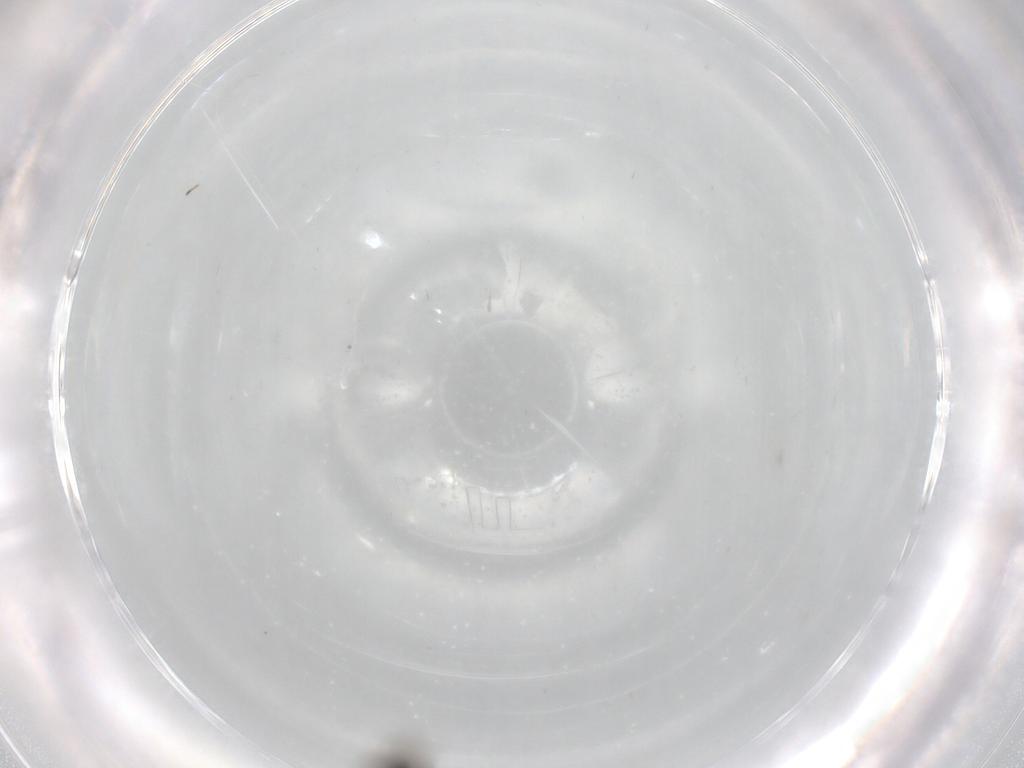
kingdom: Animalia
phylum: Arthropoda
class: Insecta
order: Hymenoptera
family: Platygastridae
